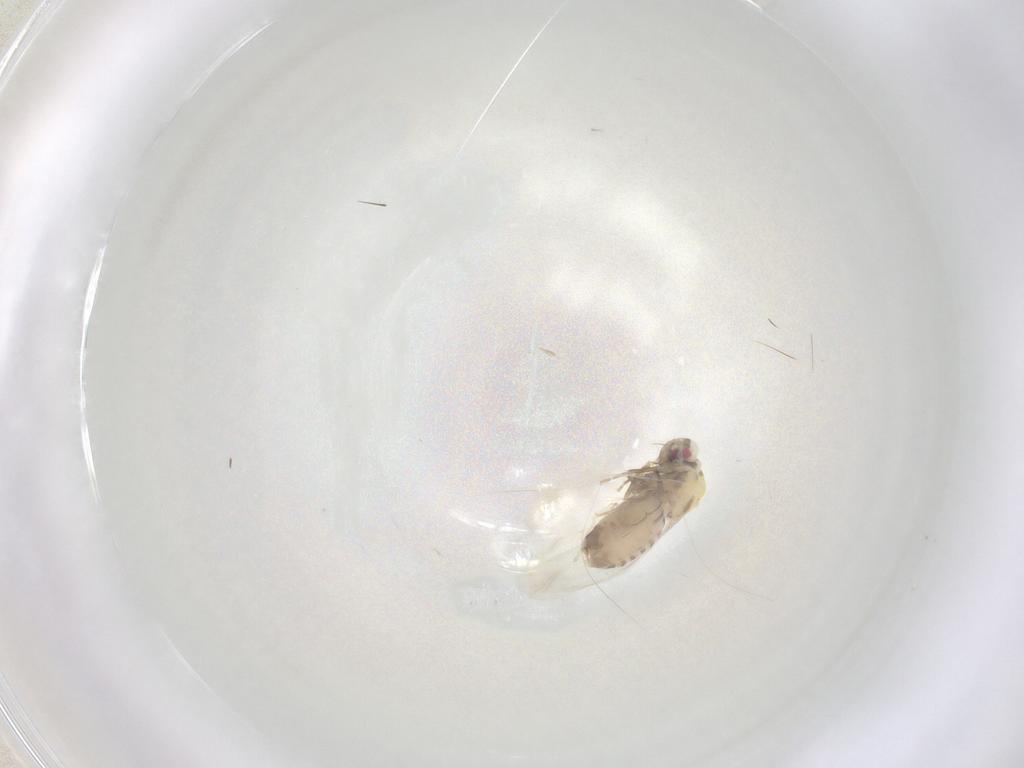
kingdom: Animalia
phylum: Arthropoda
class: Insecta
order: Hemiptera
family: Aleyrodidae
